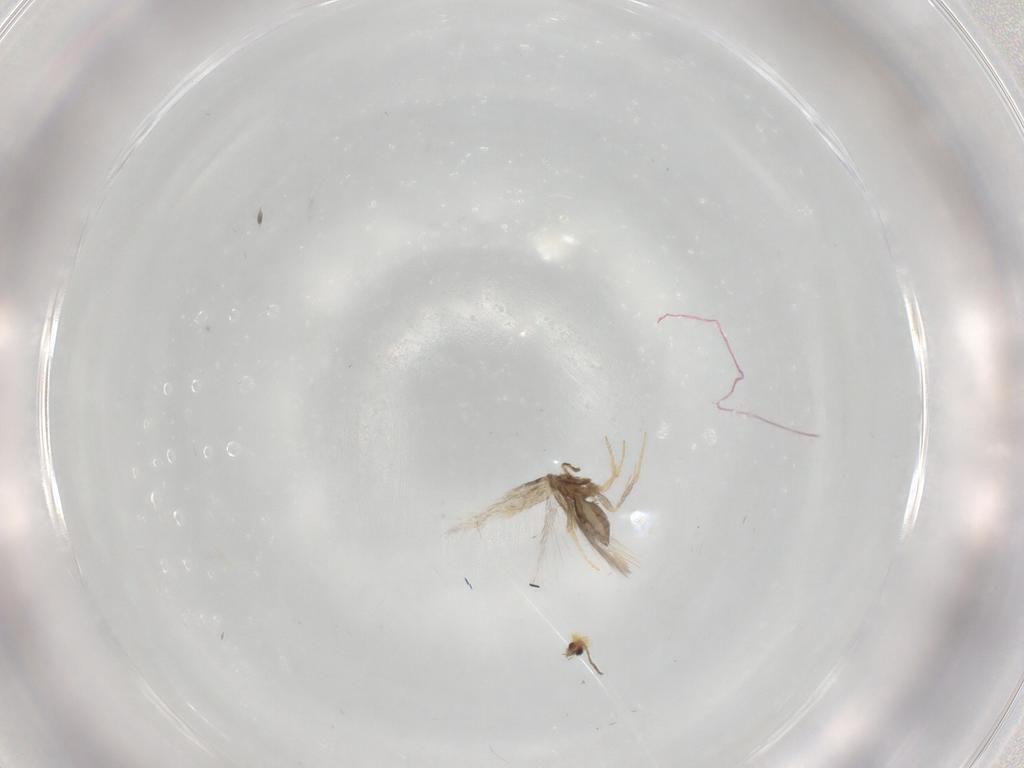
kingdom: Animalia
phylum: Arthropoda
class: Insecta
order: Lepidoptera
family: Nepticulidae
